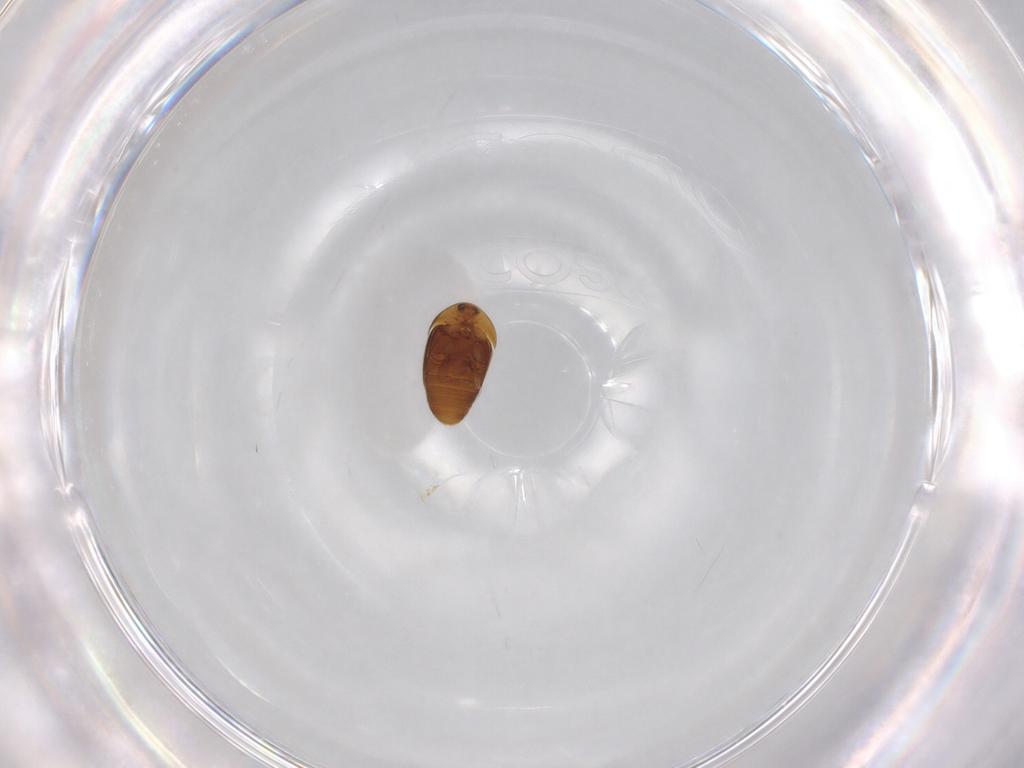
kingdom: Animalia
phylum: Arthropoda
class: Insecta
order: Coleoptera
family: Corylophidae
